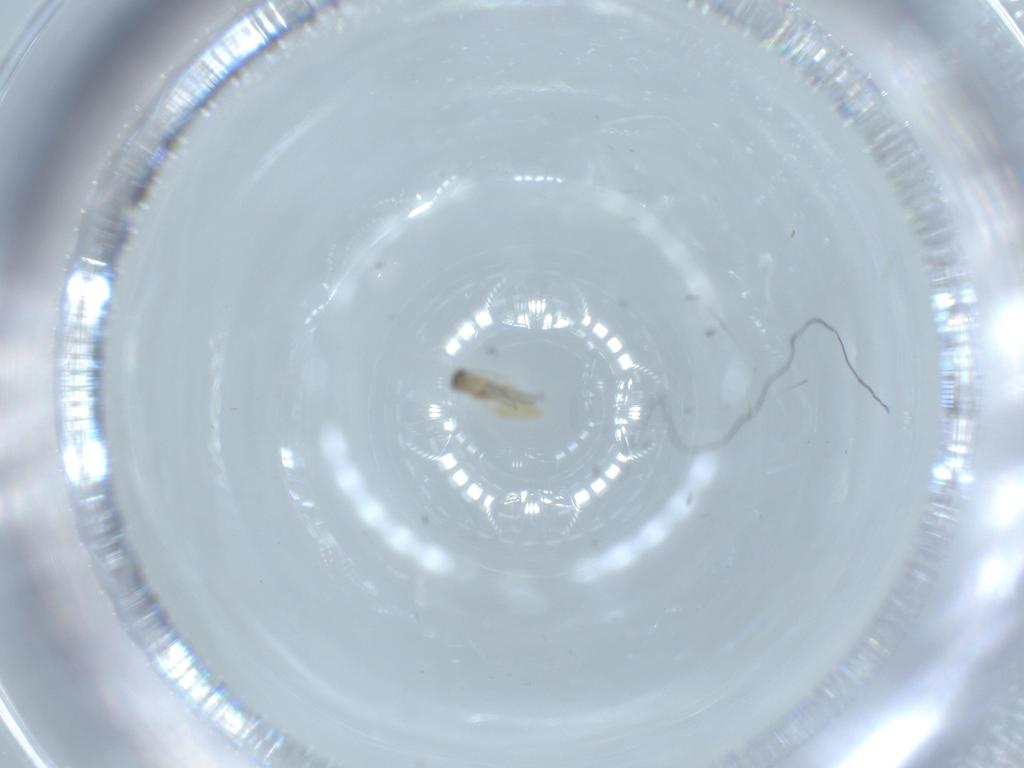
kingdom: Animalia
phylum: Arthropoda
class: Insecta
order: Diptera
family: Cecidomyiidae
